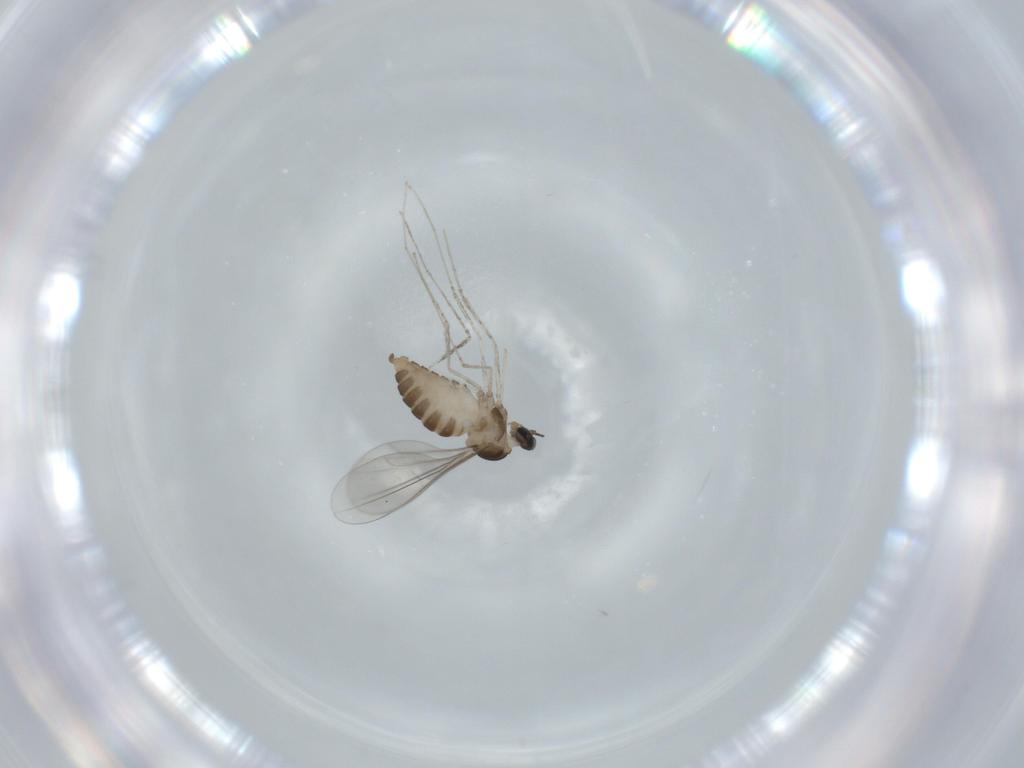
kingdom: Animalia
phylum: Arthropoda
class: Insecta
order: Diptera
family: Cecidomyiidae
